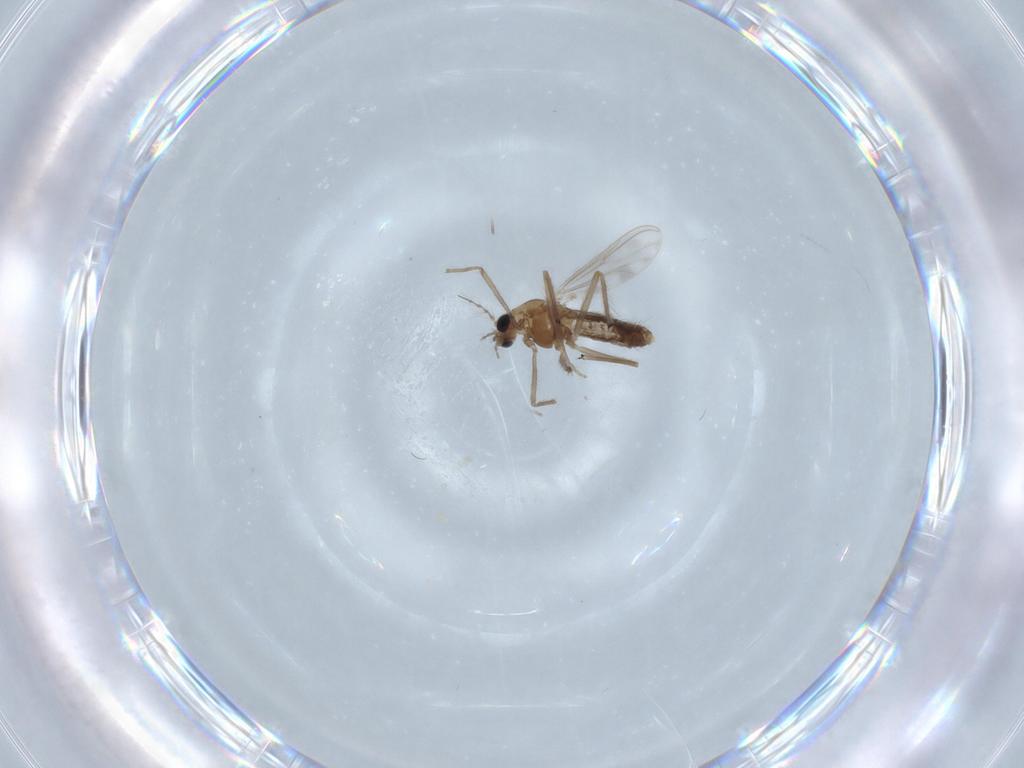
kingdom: Animalia
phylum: Arthropoda
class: Insecta
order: Diptera
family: Chironomidae
